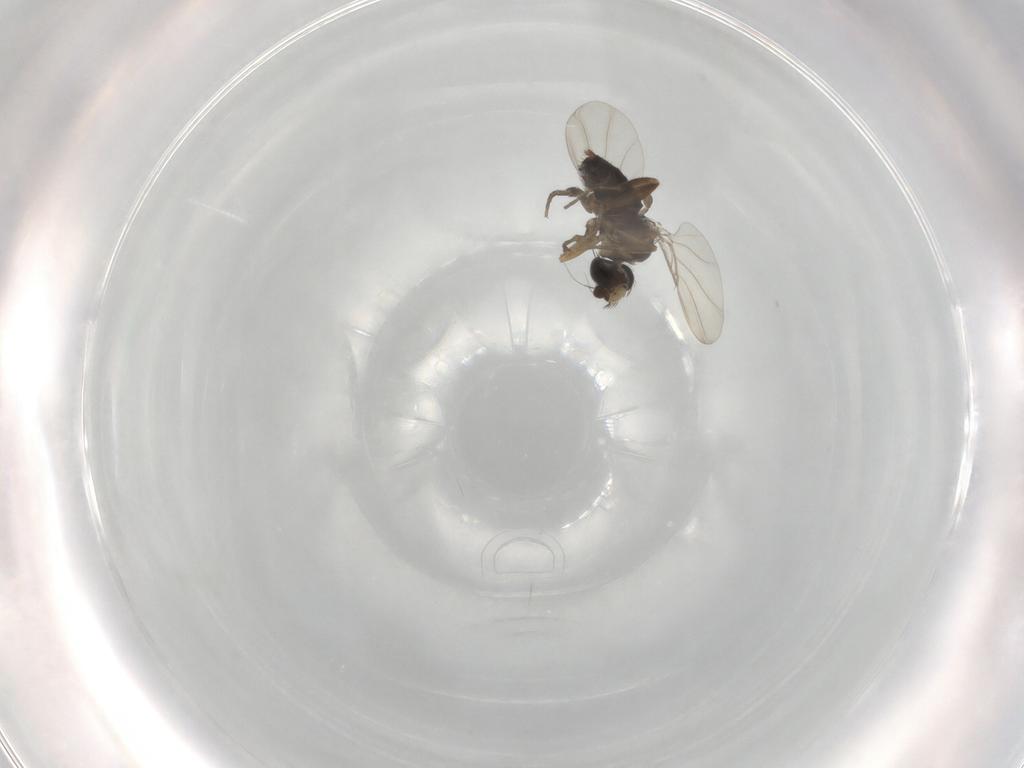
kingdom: Animalia
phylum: Arthropoda
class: Insecta
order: Diptera
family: Phoridae
